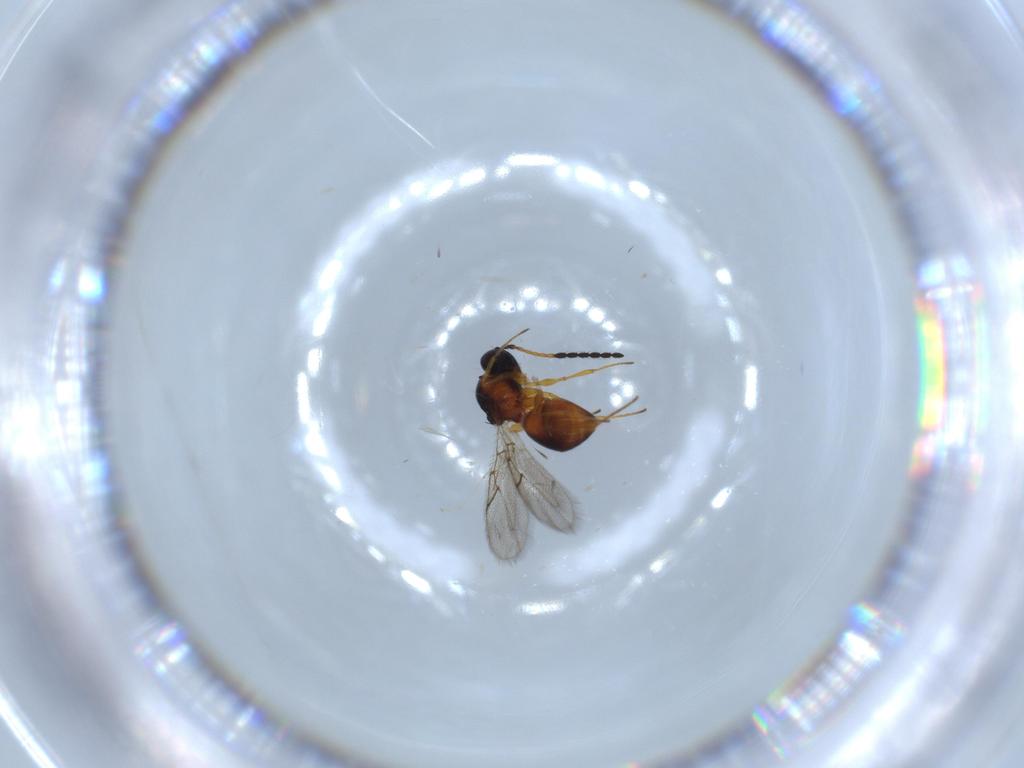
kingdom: Animalia
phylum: Arthropoda
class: Insecta
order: Hymenoptera
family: Figitidae
